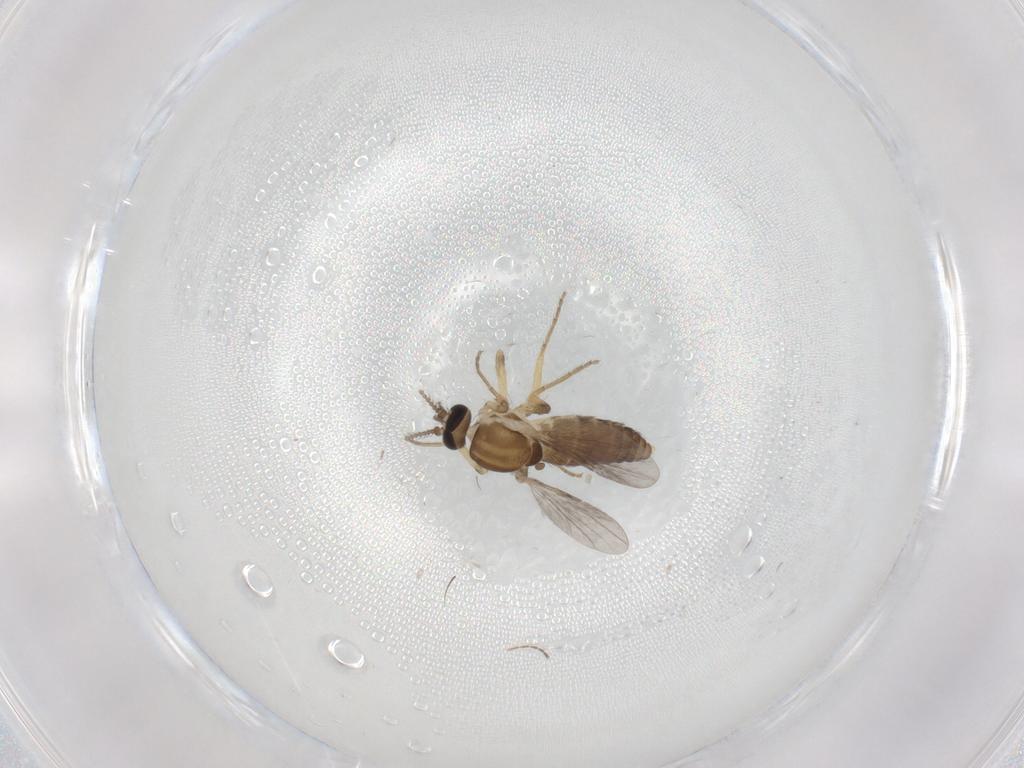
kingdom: Animalia
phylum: Arthropoda
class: Insecta
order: Diptera
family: Ceratopogonidae
